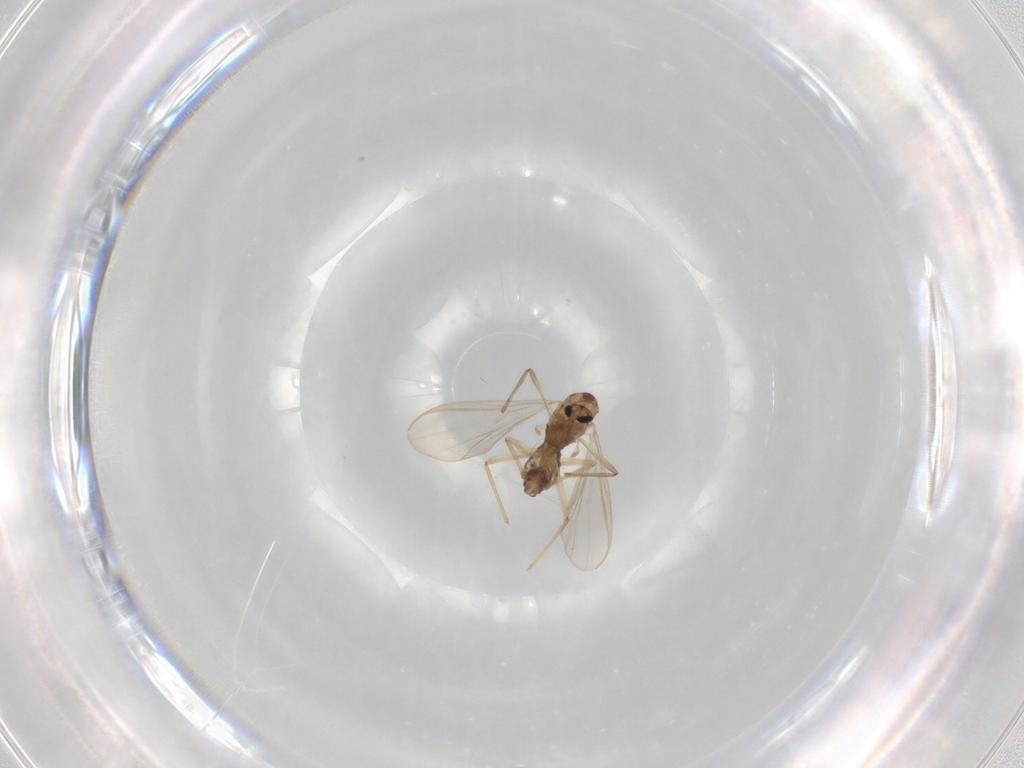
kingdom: Animalia
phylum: Arthropoda
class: Insecta
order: Diptera
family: Chironomidae
